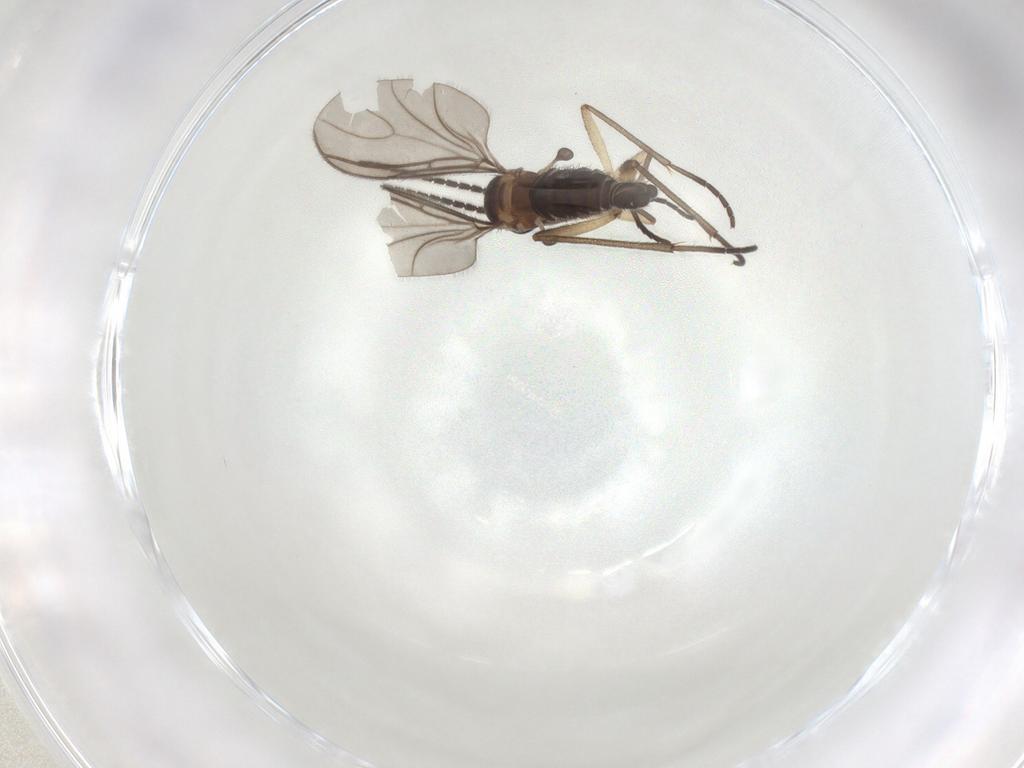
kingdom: Animalia
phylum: Arthropoda
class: Insecta
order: Diptera
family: Sciaridae
